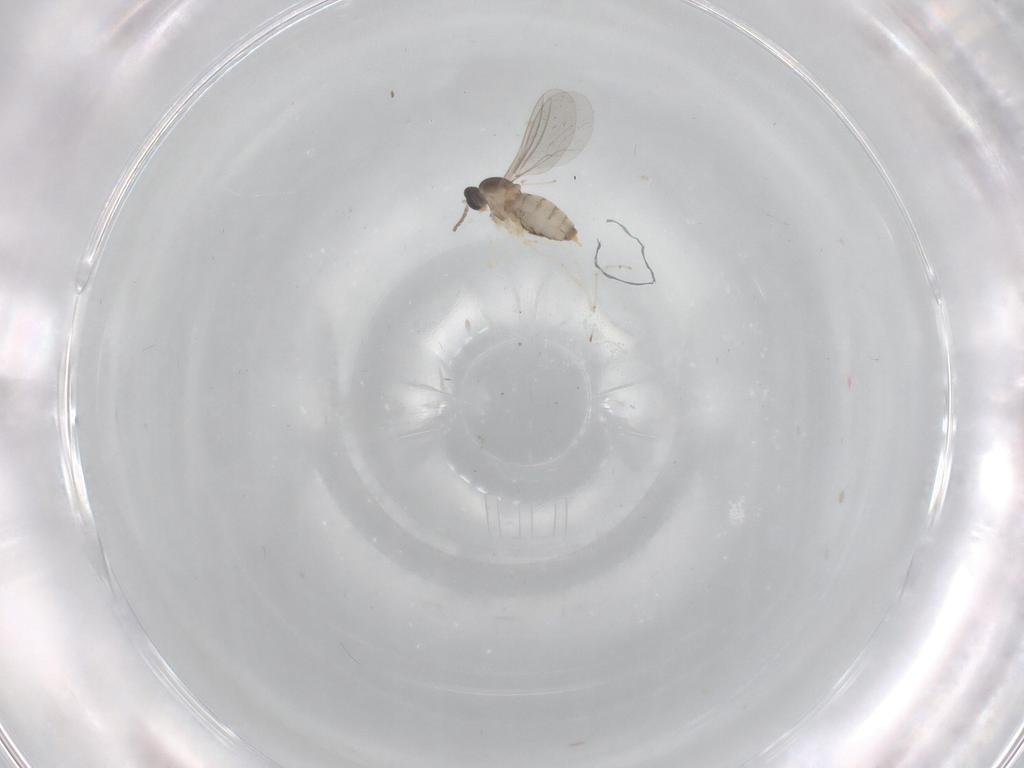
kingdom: Animalia
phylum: Arthropoda
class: Insecta
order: Diptera
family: Cecidomyiidae
